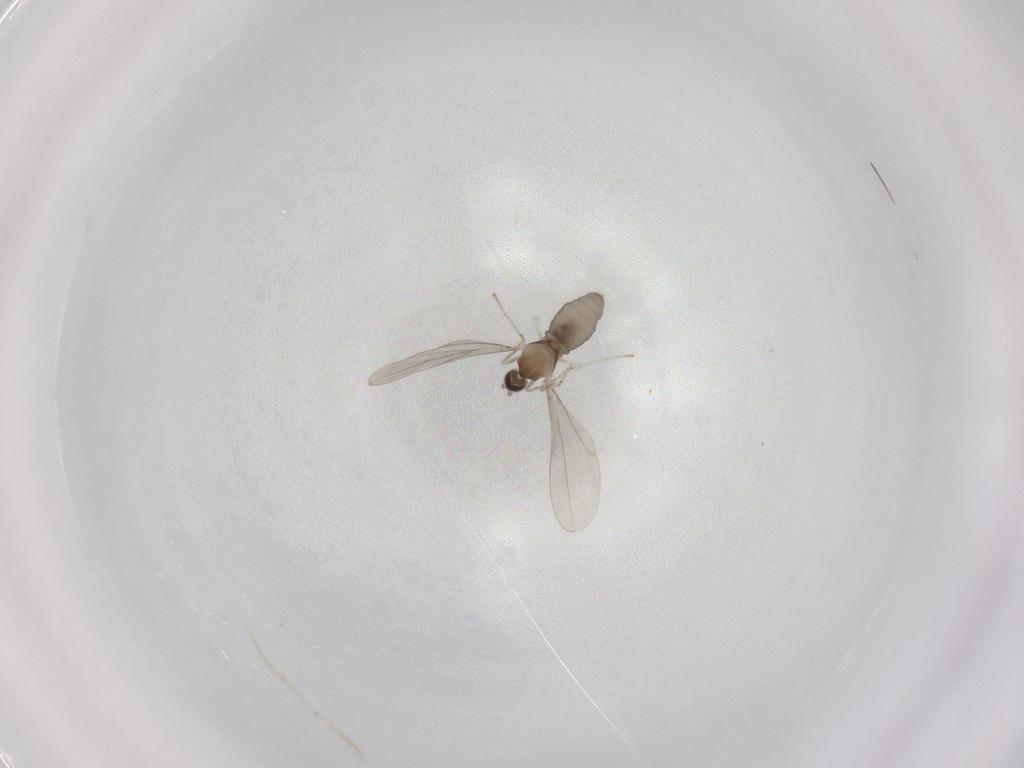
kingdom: Animalia
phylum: Arthropoda
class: Insecta
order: Diptera
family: Cecidomyiidae
